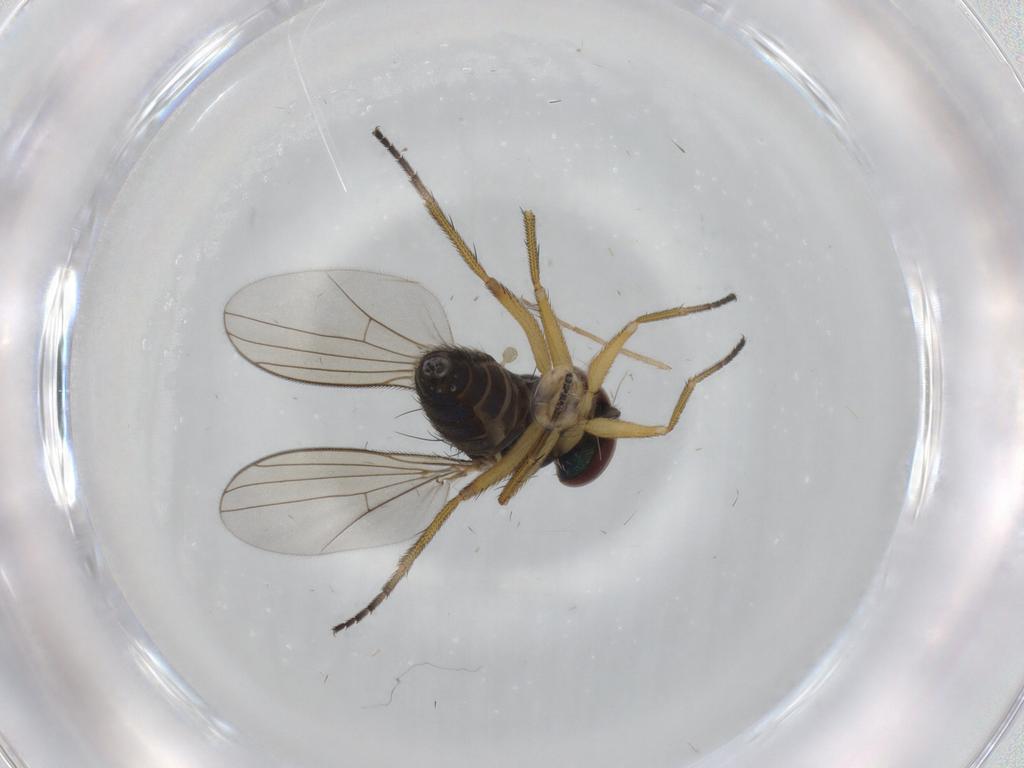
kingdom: Animalia
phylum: Arthropoda
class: Insecta
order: Diptera
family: Dolichopodidae
